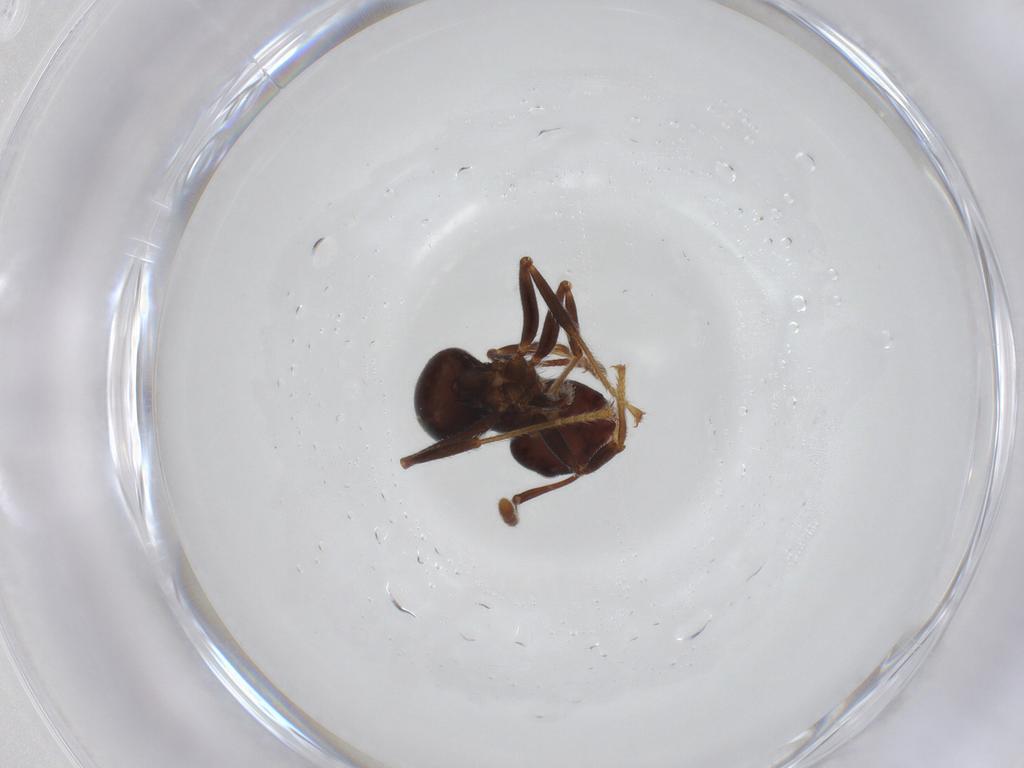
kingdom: Animalia
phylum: Arthropoda
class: Insecta
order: Hymenoptera
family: Formicidae
